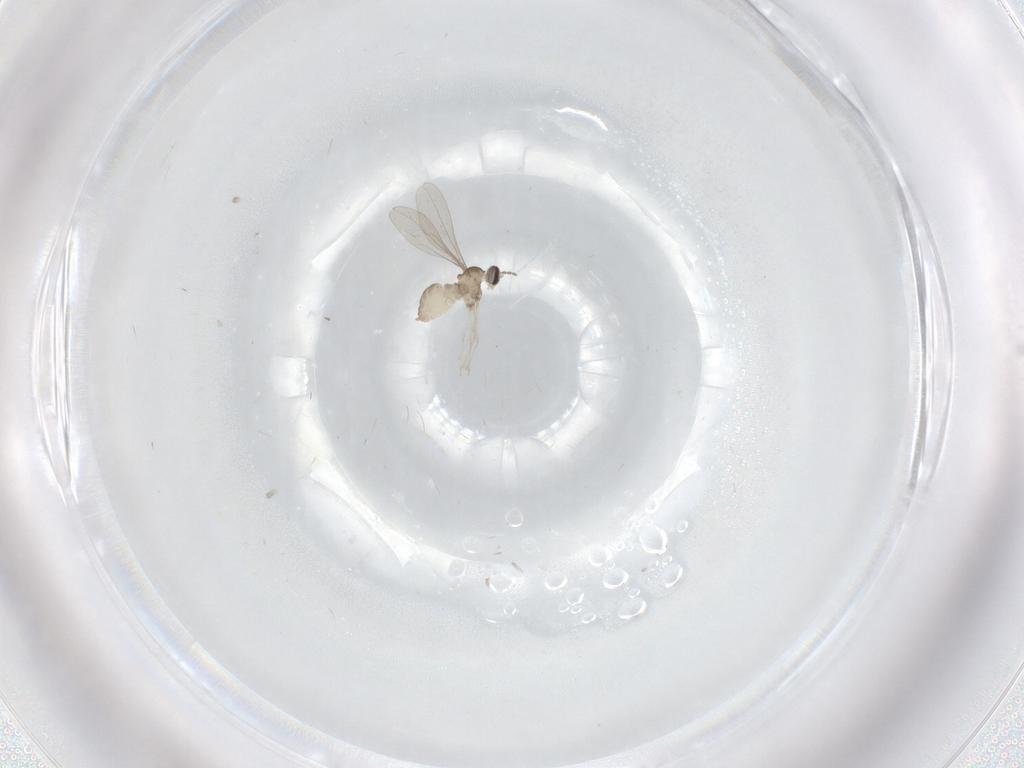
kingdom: Animalia
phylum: Arthropoda
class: Insecta
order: Diptera
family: Cecidomyiidae
